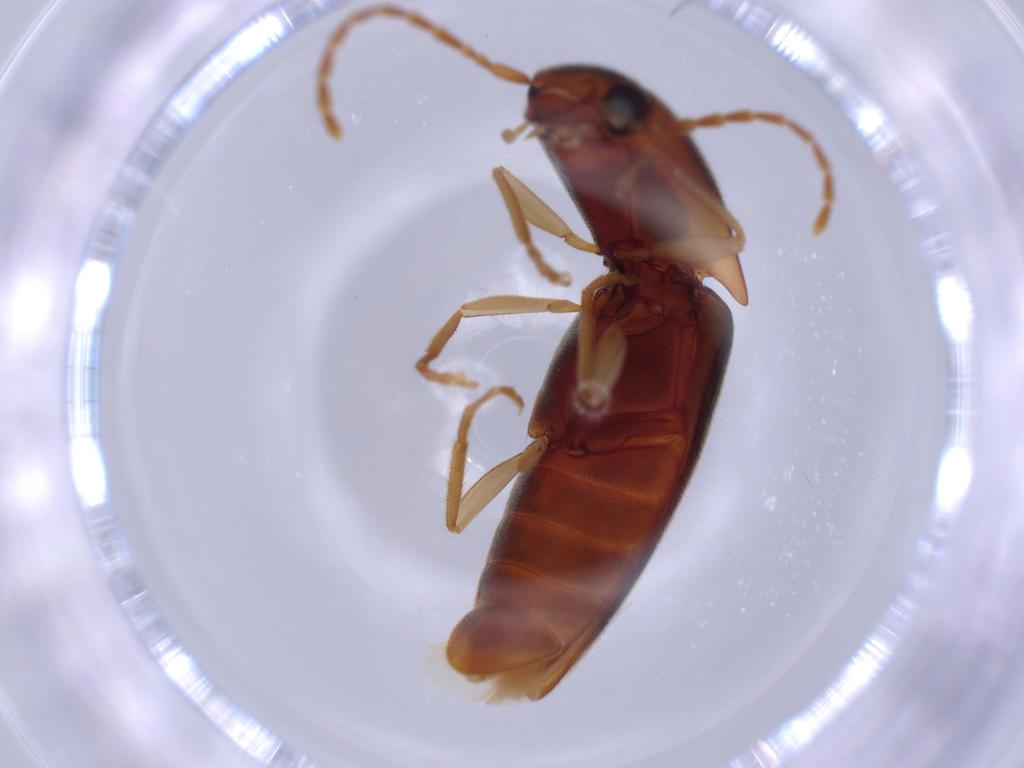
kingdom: Animalia
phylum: Arthropoda
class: Insecta
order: Coleoptera
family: Elateridae
